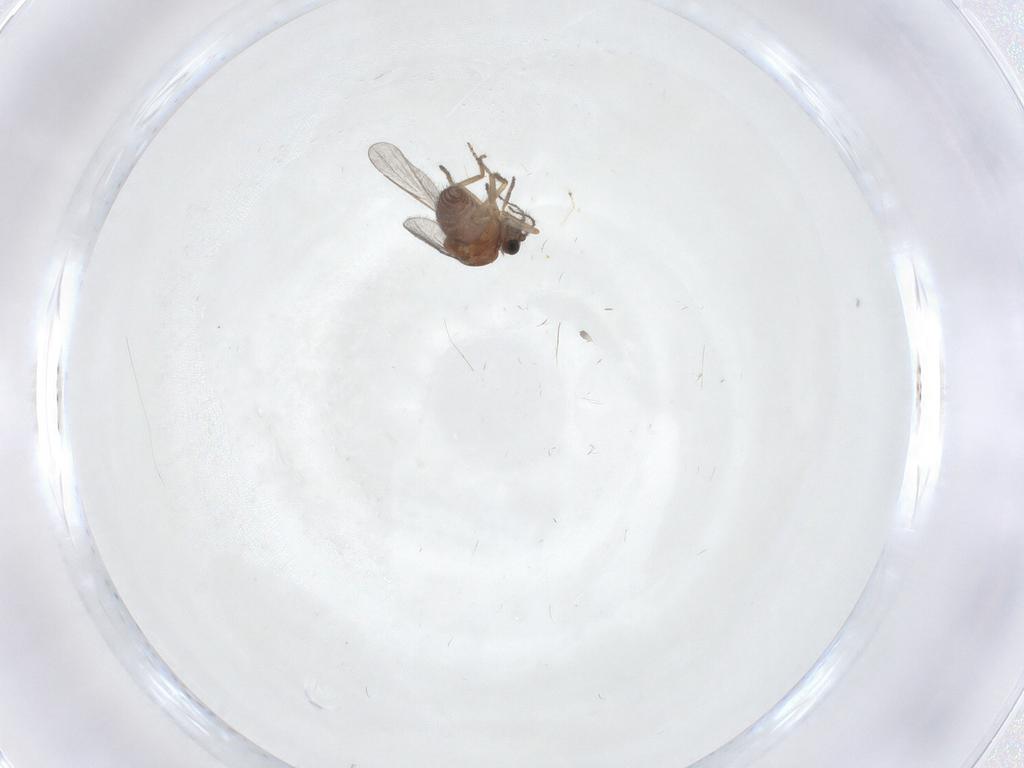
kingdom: Animalia
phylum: Arthropoda
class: Insecta
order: Diptera
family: Ceratopogonidae
